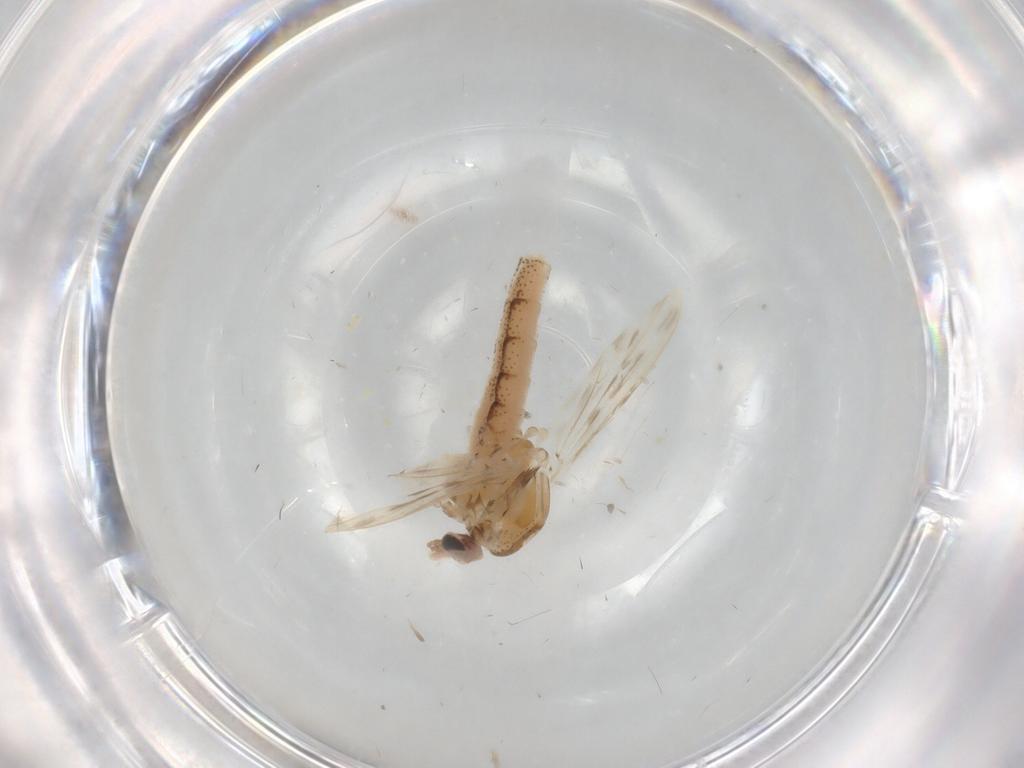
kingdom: Animalia
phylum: Arthropoda
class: Insecta
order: Diptera
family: Chaoboridae
